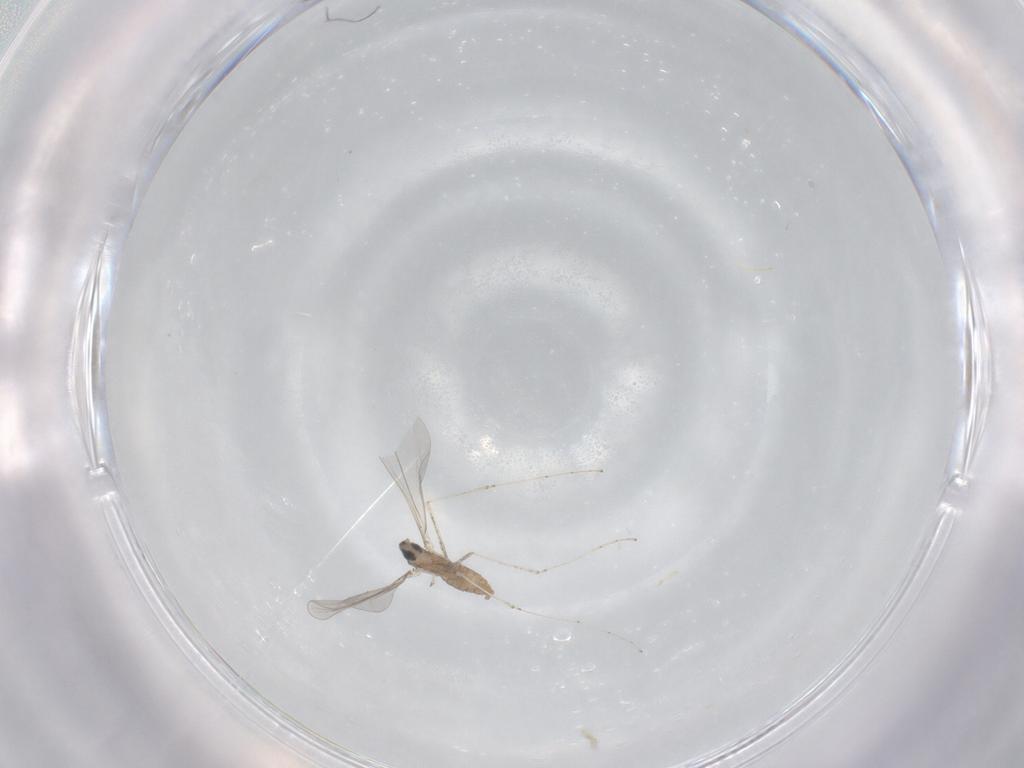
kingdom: Animalia
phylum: Arthropoda
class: Insecta
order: Diptera
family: Cecidomyiidae
